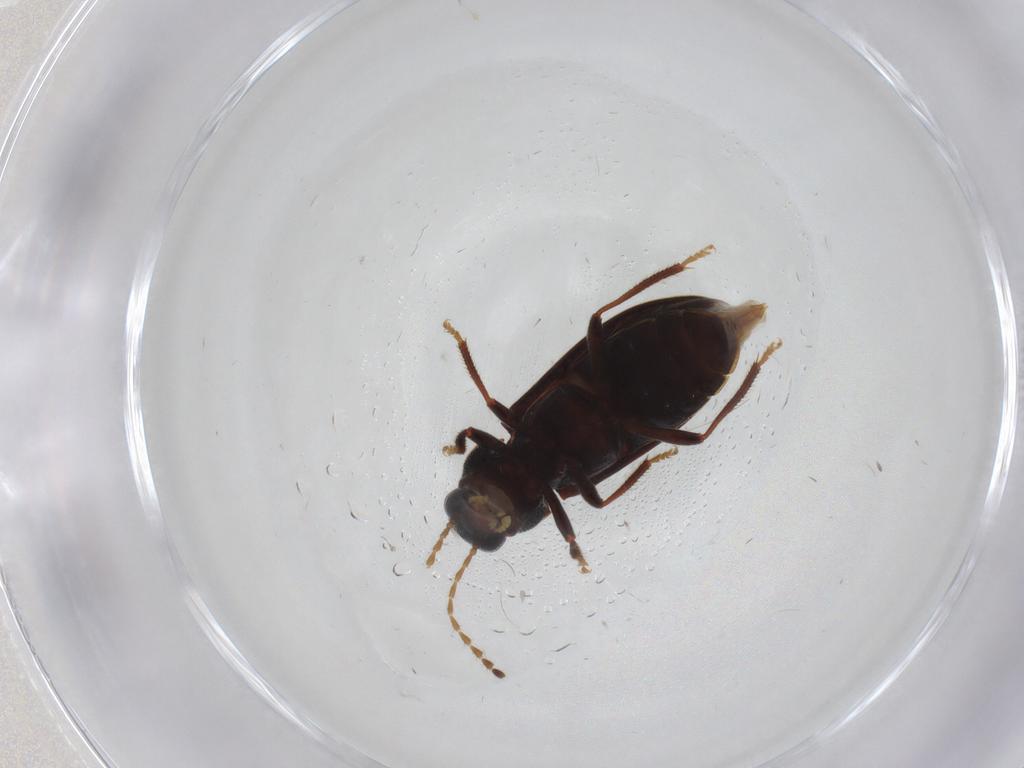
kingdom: Animalia
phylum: Arthropoda
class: Insecta
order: Coleoptera
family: Ptilodactylidae
